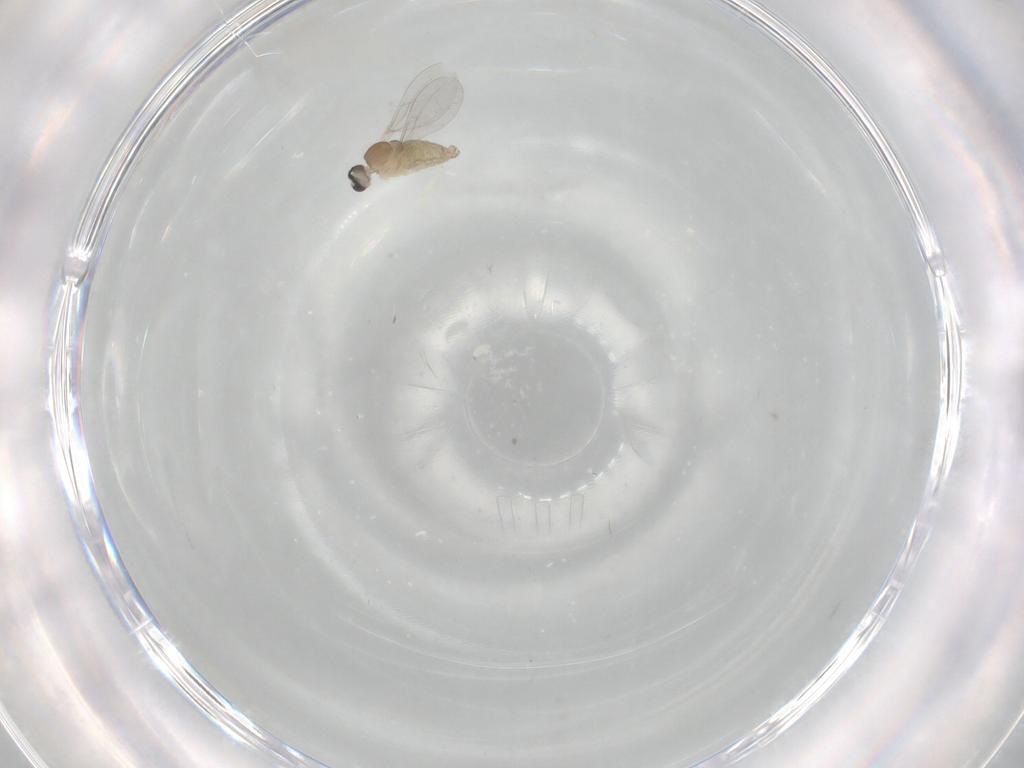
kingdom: Animalia
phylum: Arthropoda
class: Insecta
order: Diptera
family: Cecidomyiidae
